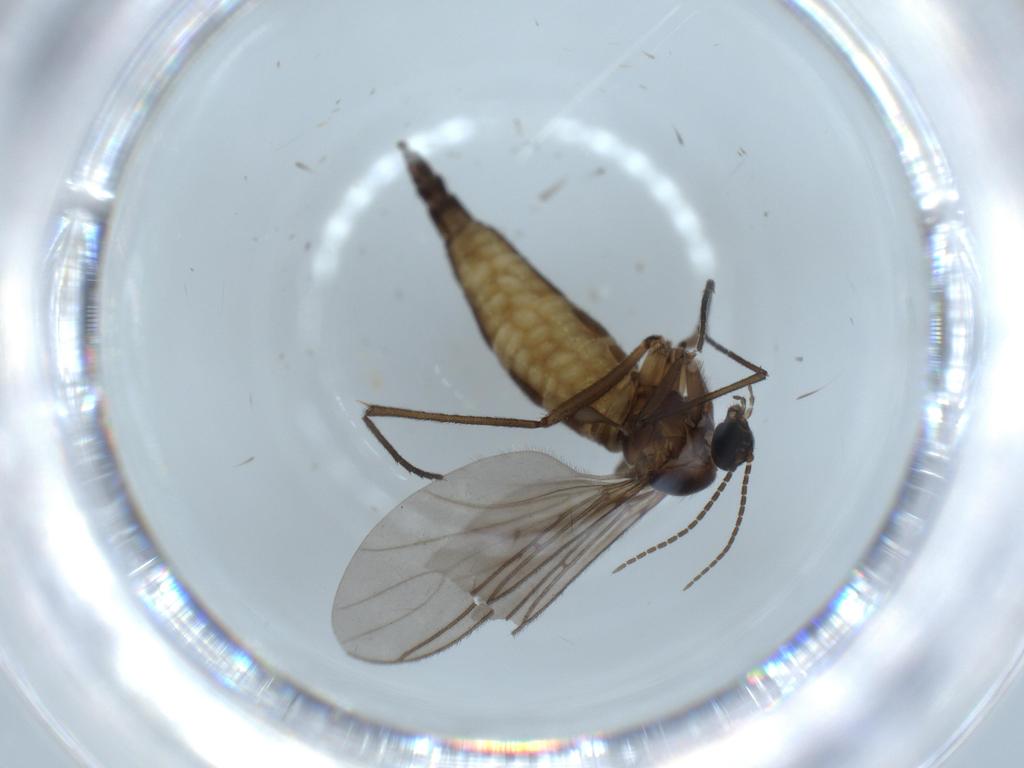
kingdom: Animalia
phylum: Arthropoda
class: Insecta
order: Diptera
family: Sciaridae
